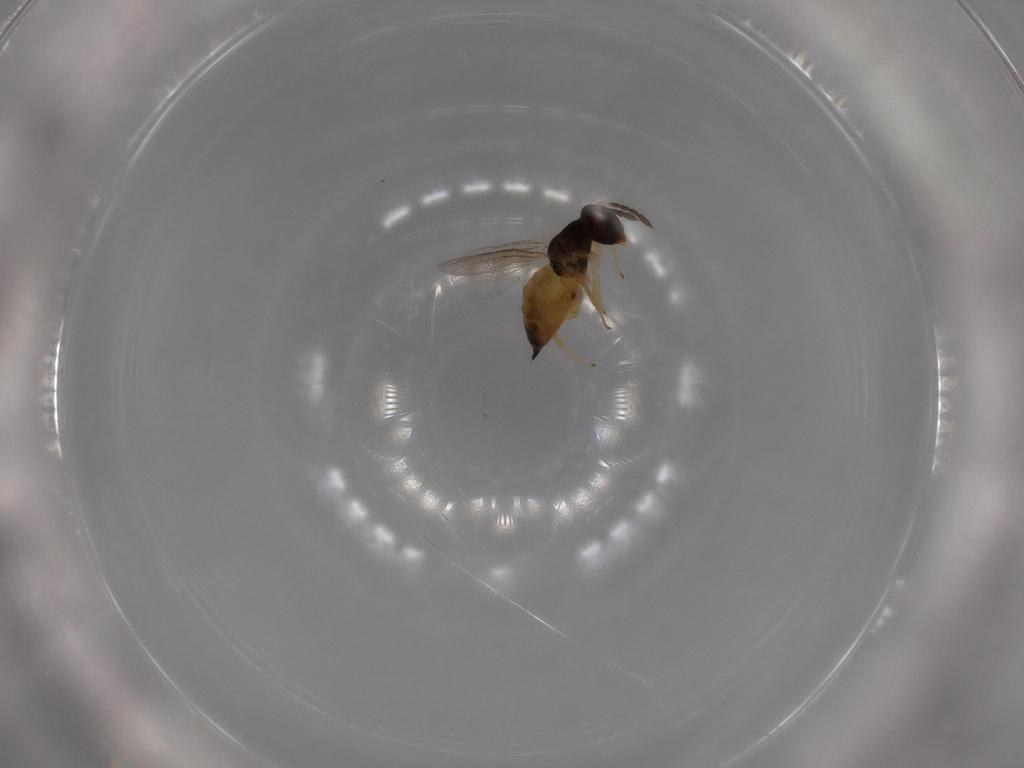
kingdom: Animalia
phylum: Arthropoda
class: Insecta
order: Hymenoptera
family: Eulophidae
